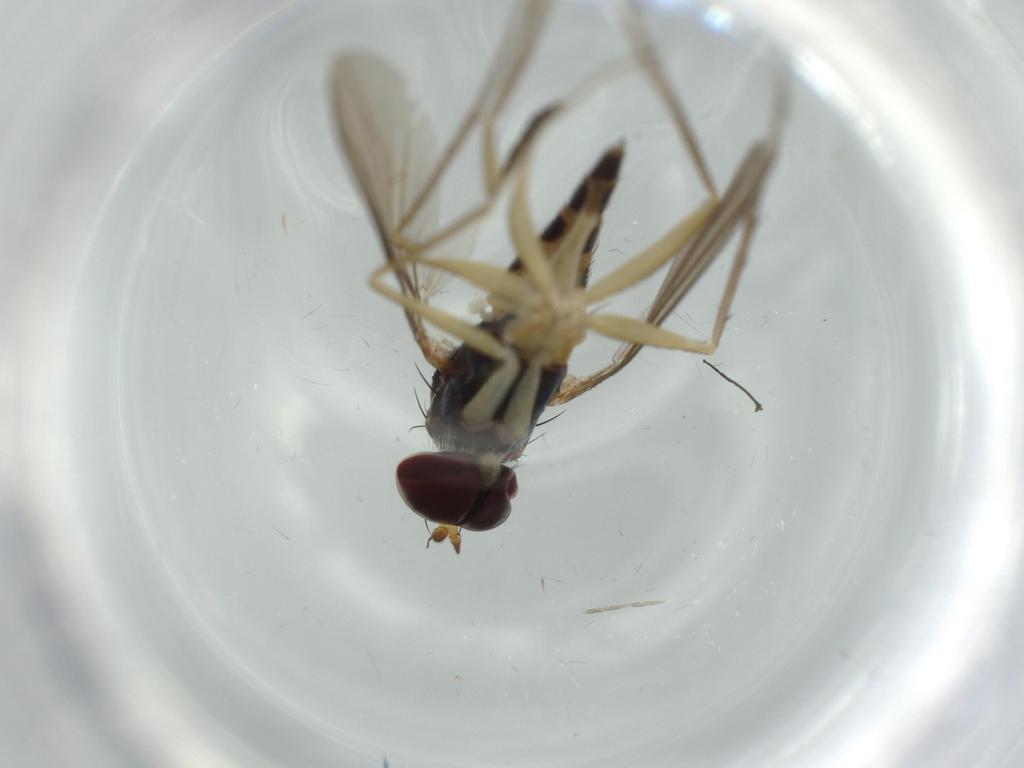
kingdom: Animalia
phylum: Arthropoda
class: Insecta
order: Diptera
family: Dolichopodidae
